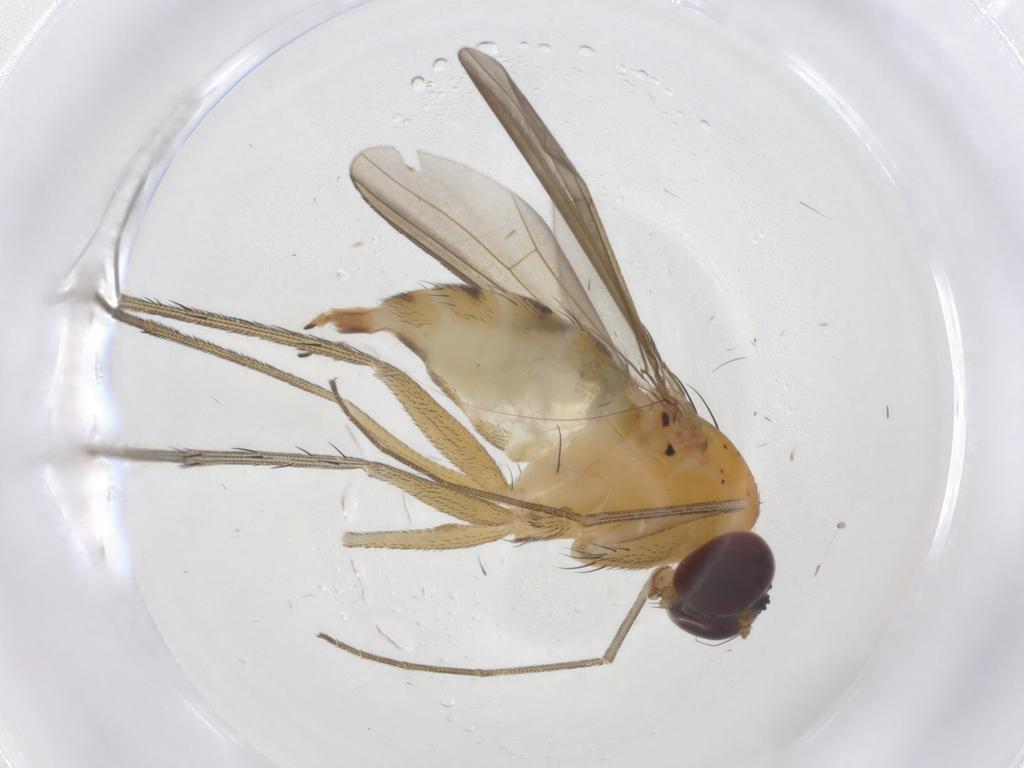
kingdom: Animalia
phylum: Arthropoda
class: Insecta
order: Diptera
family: Dolichopodidae
